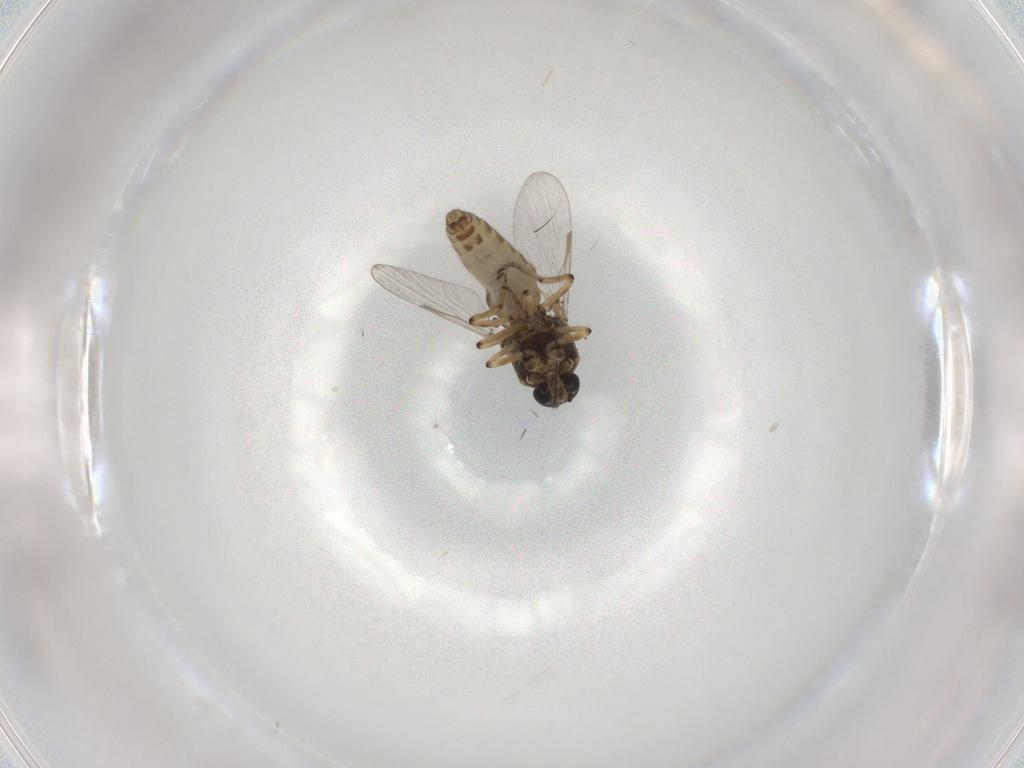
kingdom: Animalia
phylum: Arthropoda
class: Insecta
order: Diptera
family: Ceratopogonidae
